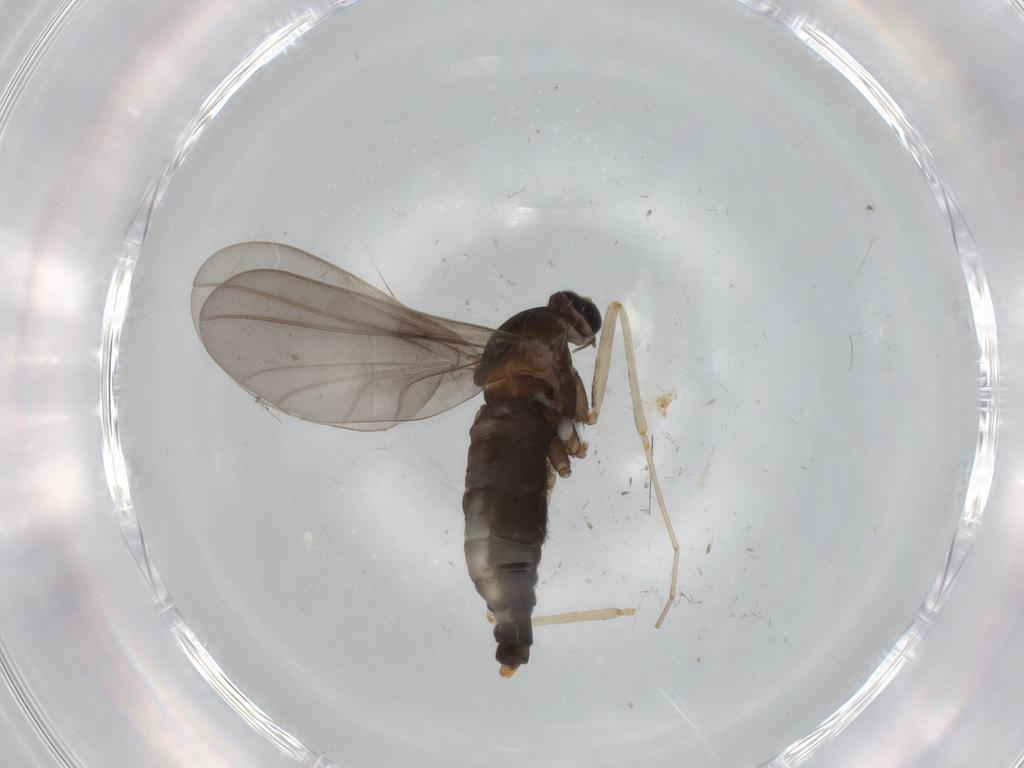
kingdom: Animalia
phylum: Arthropoda
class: Insecta
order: Diptera
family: Cecidomyiidae
